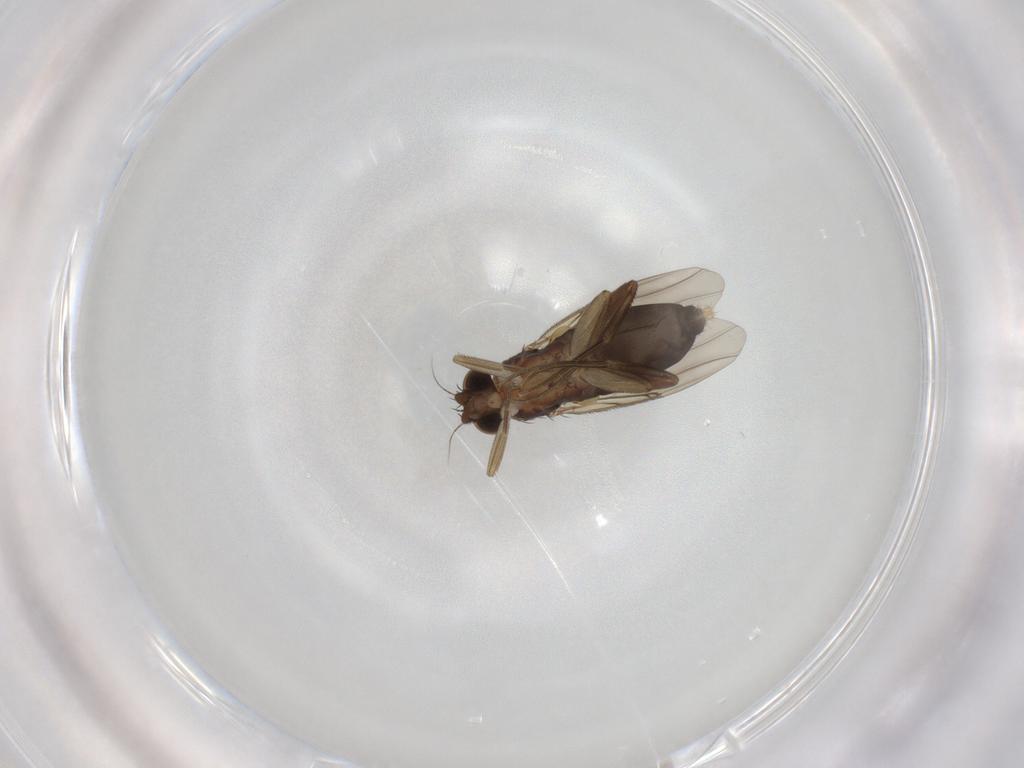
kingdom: Animalia
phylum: Arthropoda
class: Insecta
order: Diptera
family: Phoridae
